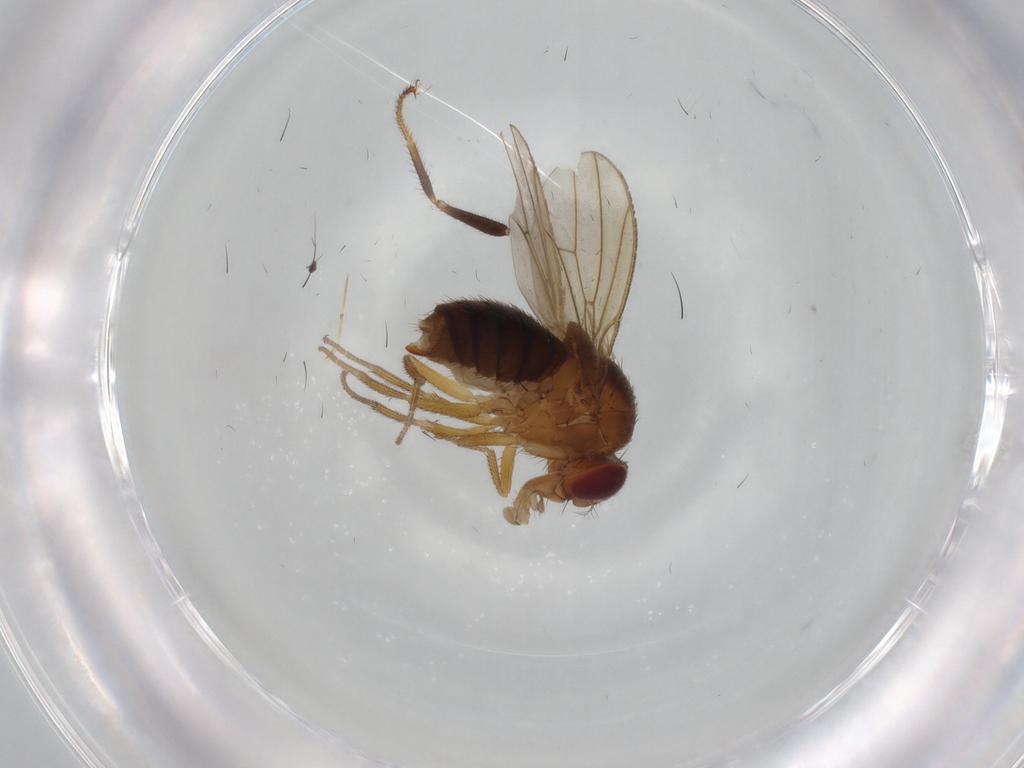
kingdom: Animalia
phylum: Arthropoda
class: Insecta
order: Diptera
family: Drosophilidae
